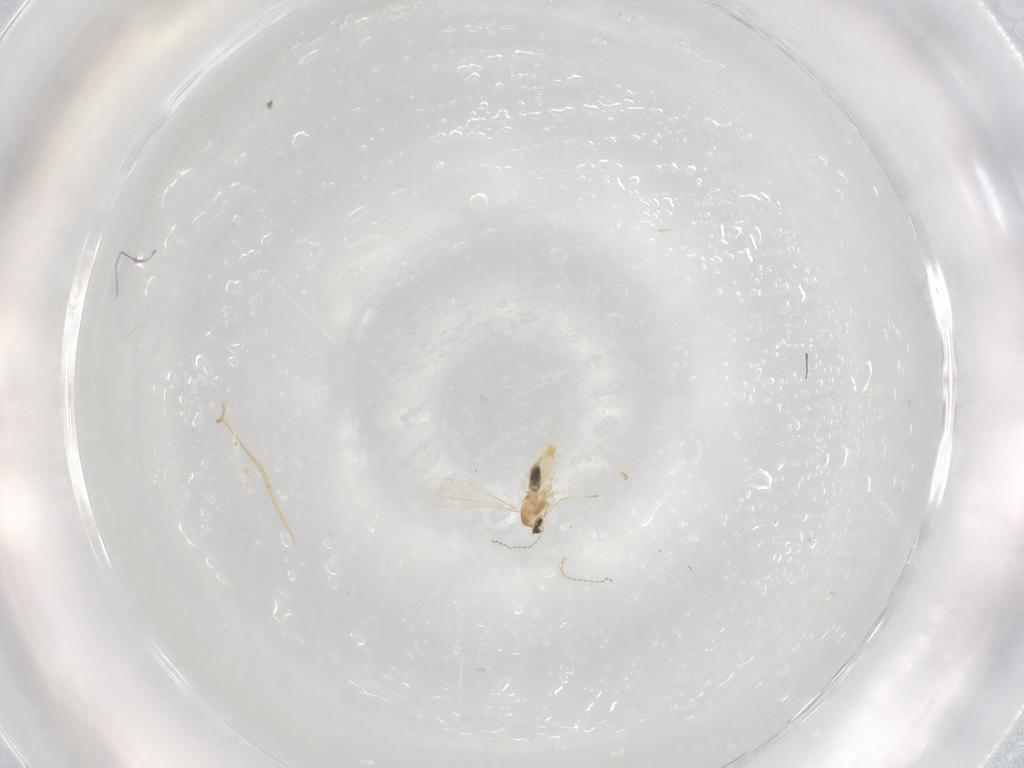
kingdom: Animalia
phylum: Arthropoda
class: Insecta
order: Diptera
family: Cecidomyiidae
